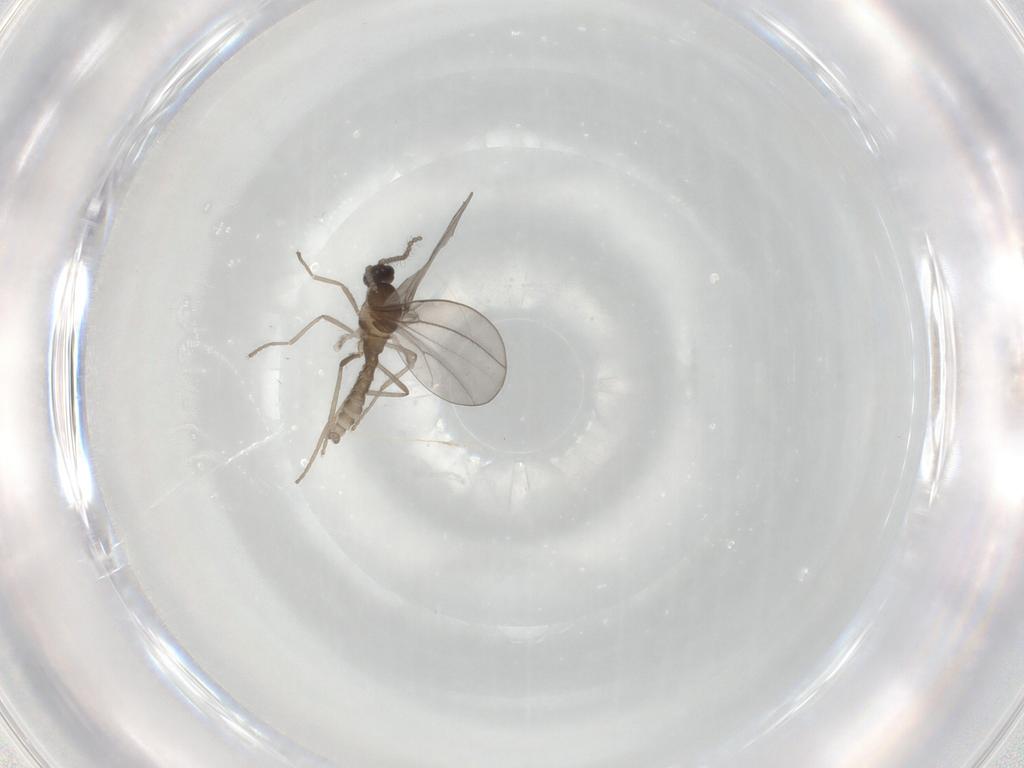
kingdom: Animalia
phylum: Arthropoda
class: Insecta
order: Diptera
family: Cecidomyiidae
